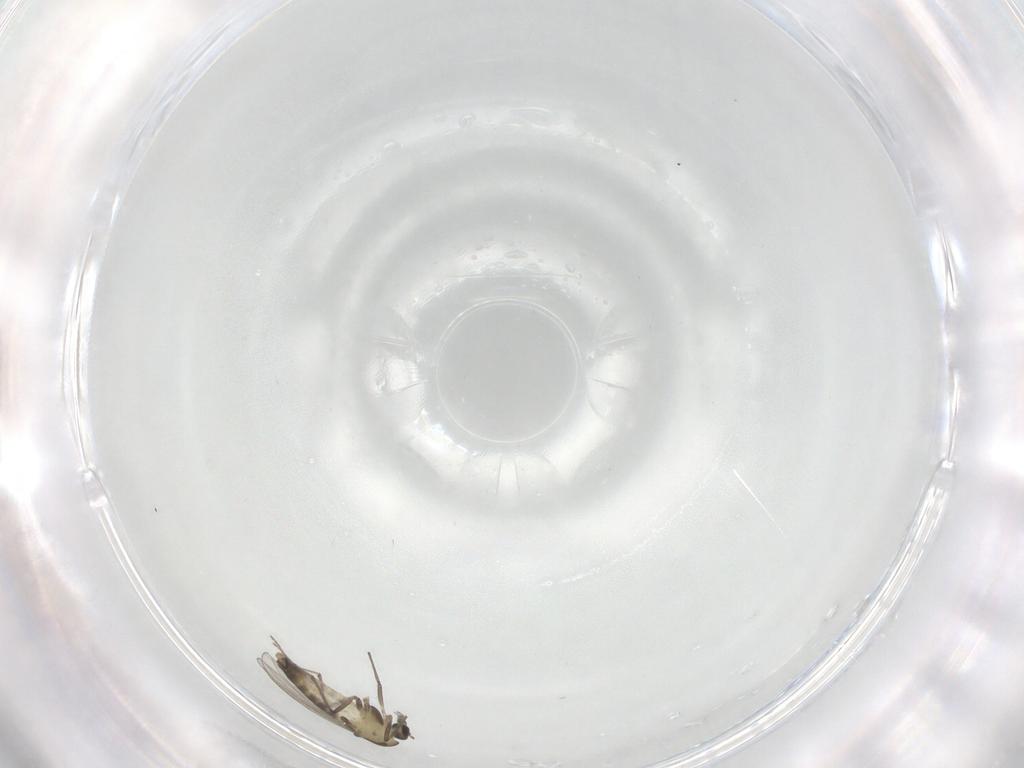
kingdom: Animalia
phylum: Arthropoda
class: Insecta
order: Diptera
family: Chironomidae
